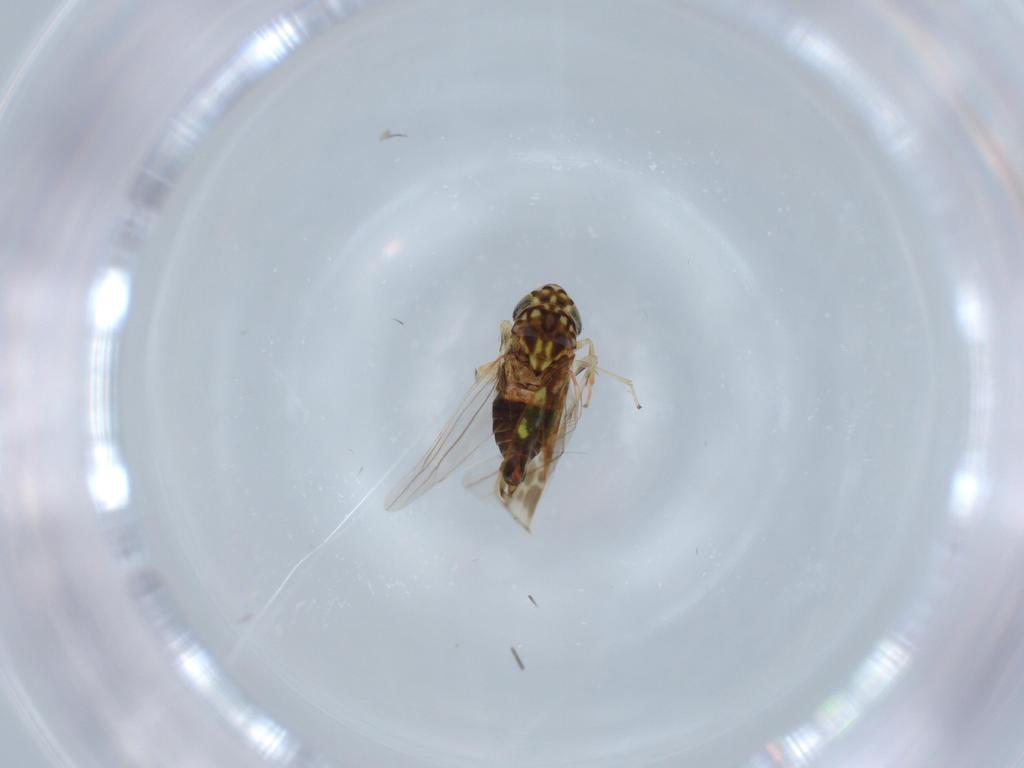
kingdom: Animalia
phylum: Arthropoda
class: Insecta
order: Hemiptera
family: Cicadellidae
